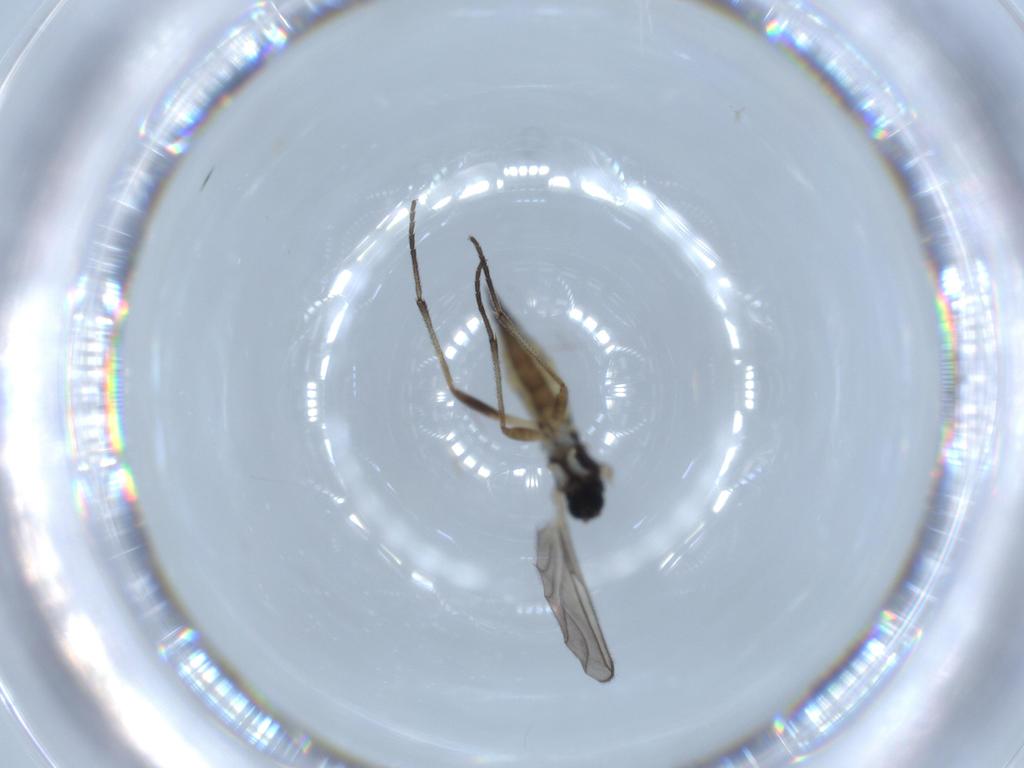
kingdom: Animalia
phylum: Arthropoda
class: Insecta
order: Diptera
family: Sciaridae
